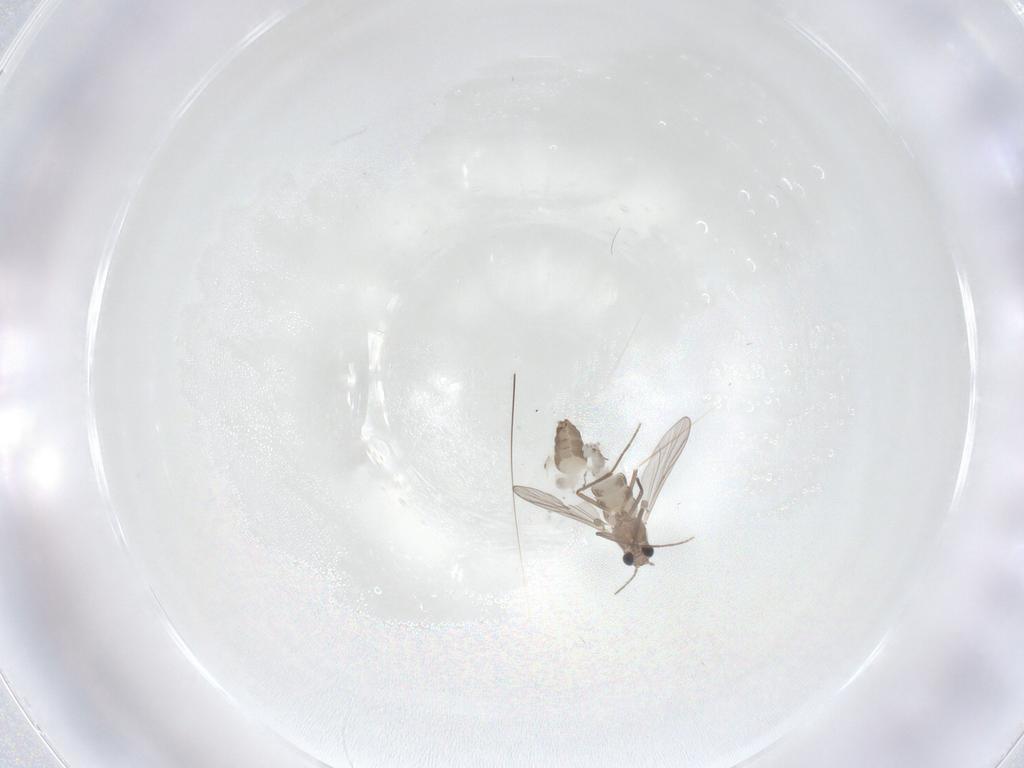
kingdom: Animalia
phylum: Arthropoda
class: Insecta
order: Diptera
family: Chironomidae
